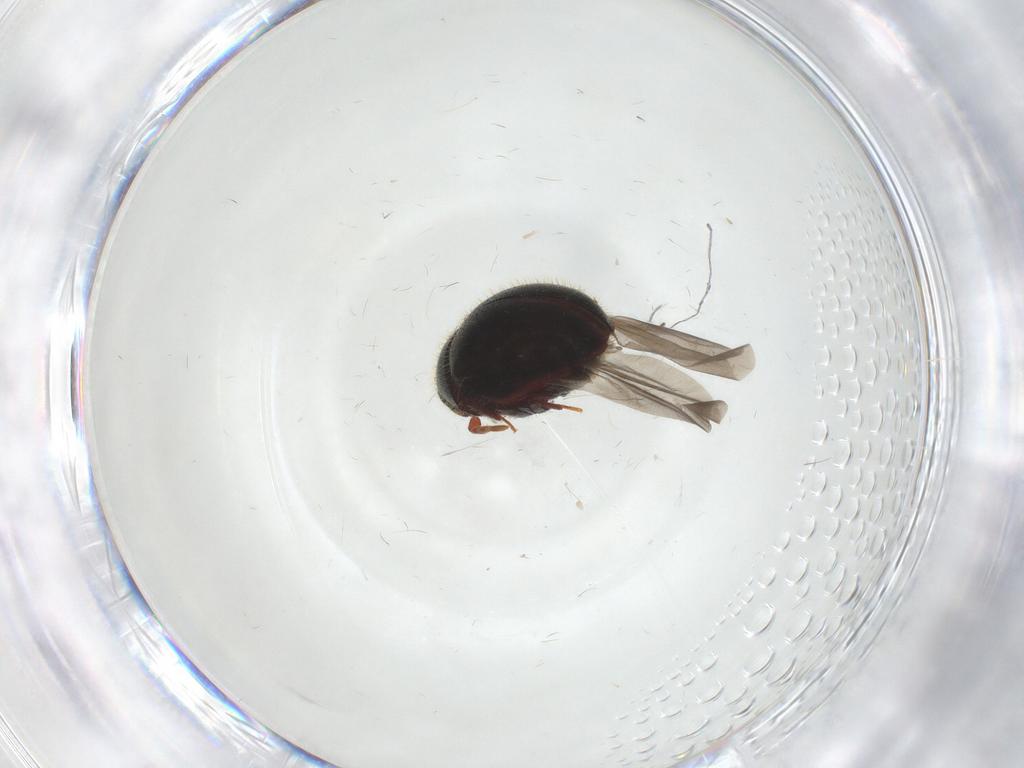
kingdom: Animalia
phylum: Arthropoda
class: Insecta
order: Coleoptera
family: Ptinidae
